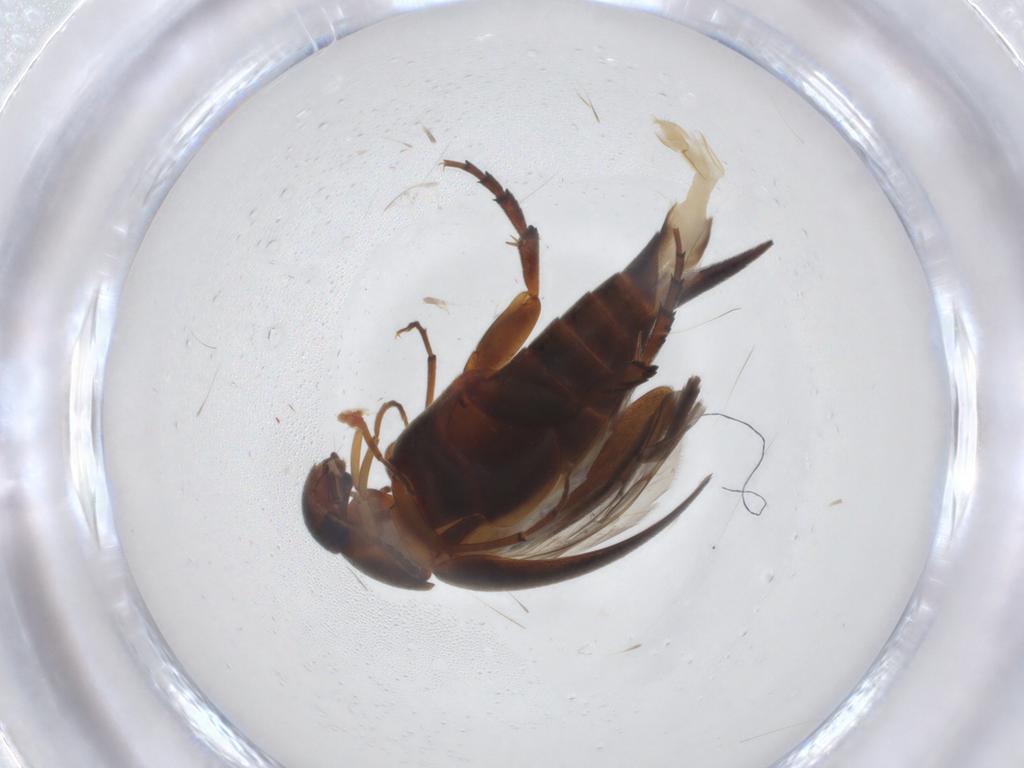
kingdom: Animalia
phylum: Arthropoda
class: Insecta
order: Coleoptera
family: Mordellidae
